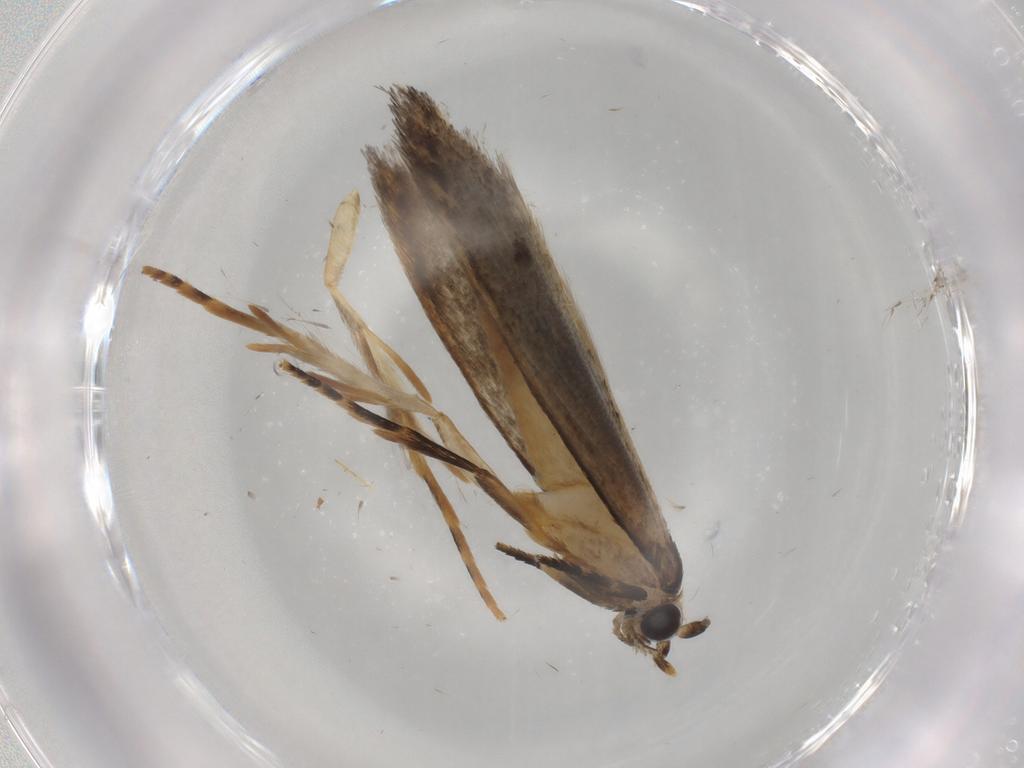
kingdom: Animalia
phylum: Arthropoda
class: Insecta
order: Lepidoptera
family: Tineidae
